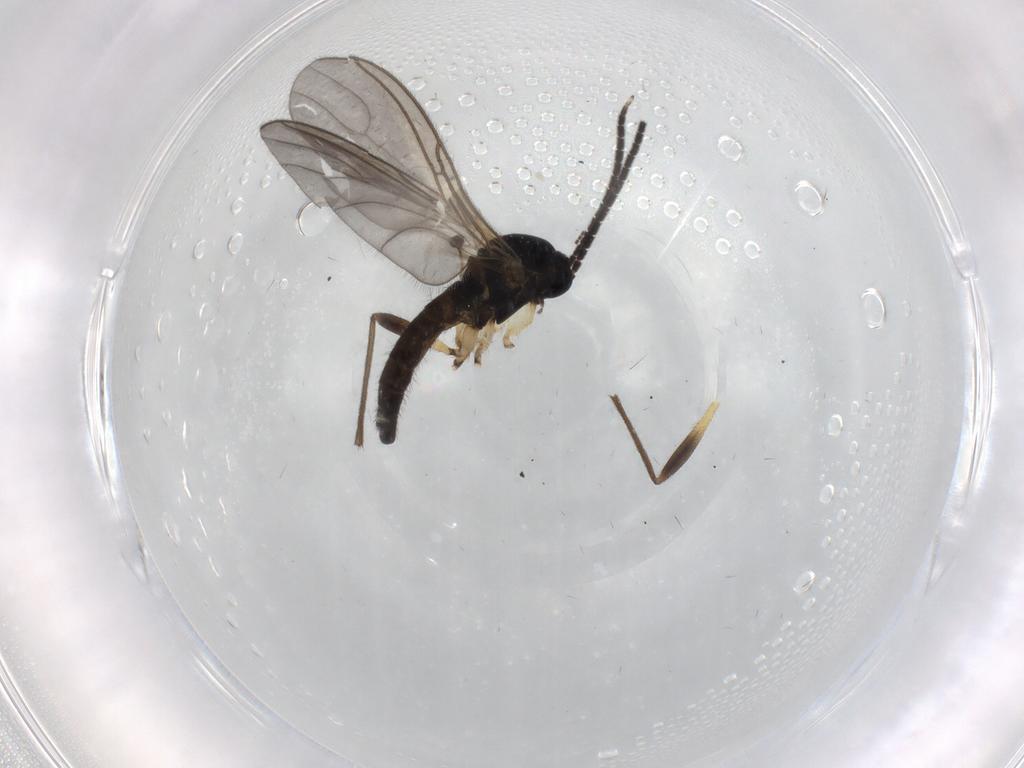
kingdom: Animalia
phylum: Arthropoda
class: Insecta
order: Diptera
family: Sciaridae
